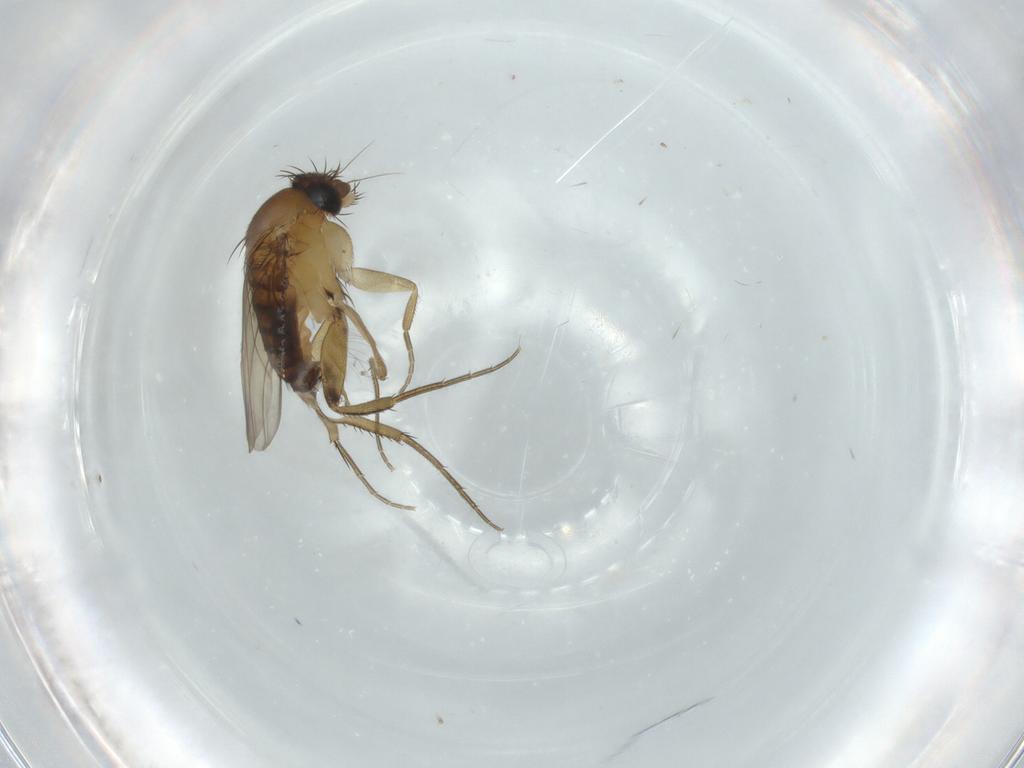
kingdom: Animalia
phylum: Arthropoda
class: Insecta
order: Diptera
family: Phoridae
